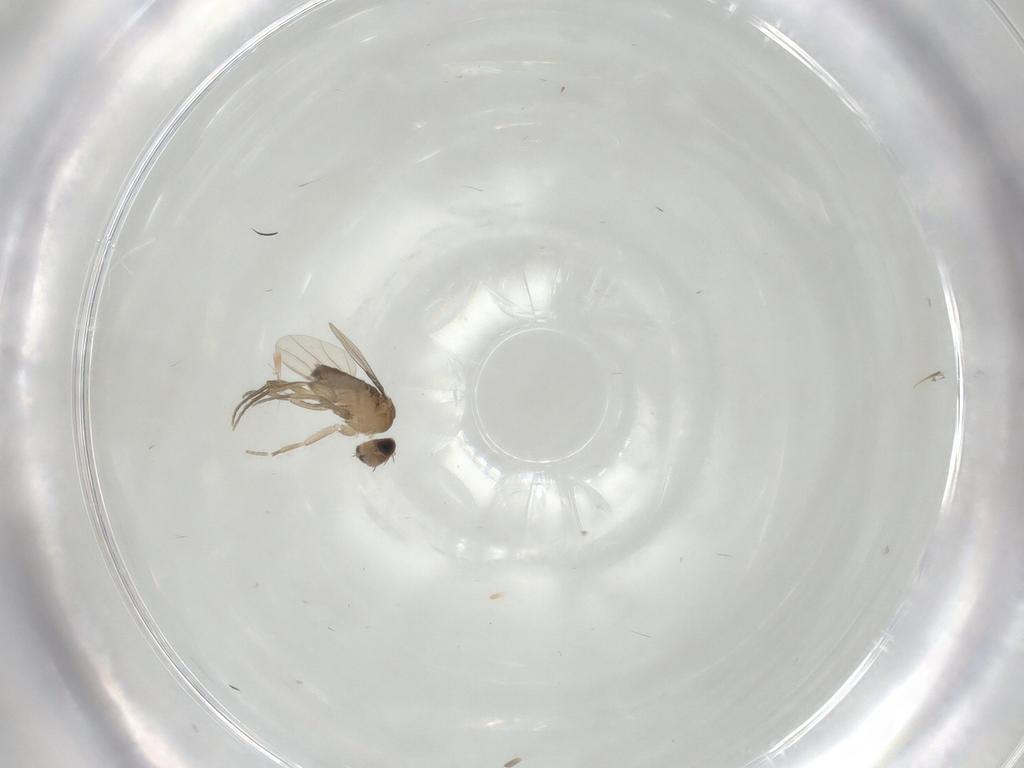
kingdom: Animalia
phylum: Arthropoda
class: Insecta
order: Diptera
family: Phoridae
